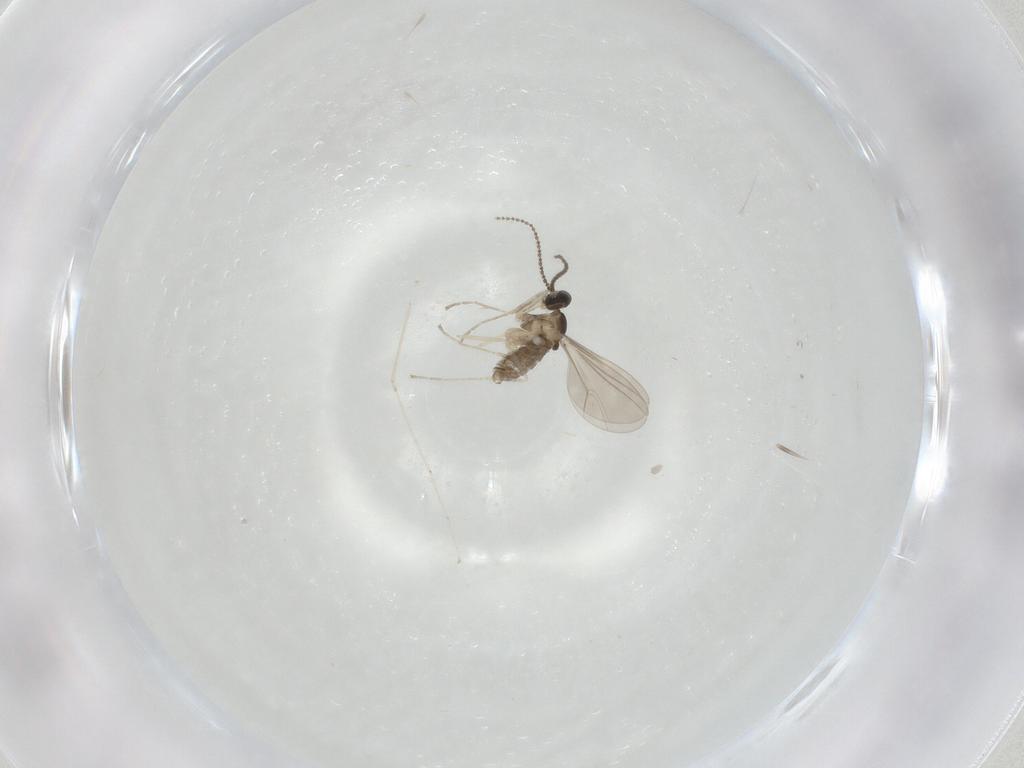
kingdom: Animalia
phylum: Arthropoda
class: Insecta
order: Diptera
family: Cecidomyiidae
